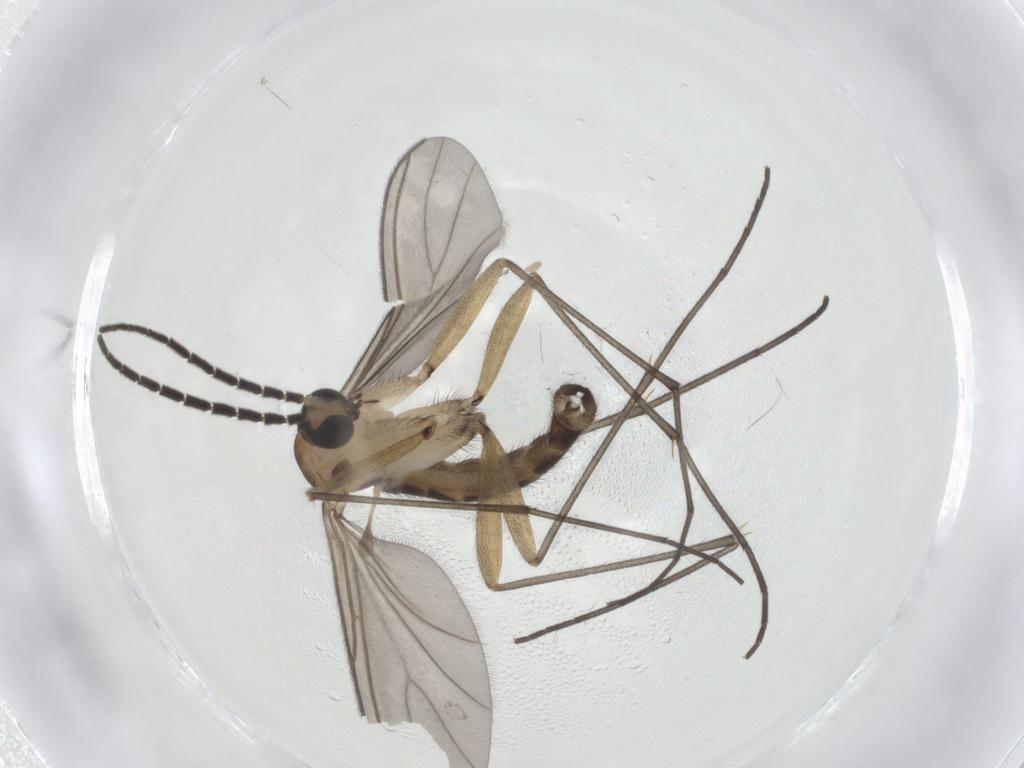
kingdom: Animalia
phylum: Arthropoda
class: Insecta
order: Diptera
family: Sciaridae
